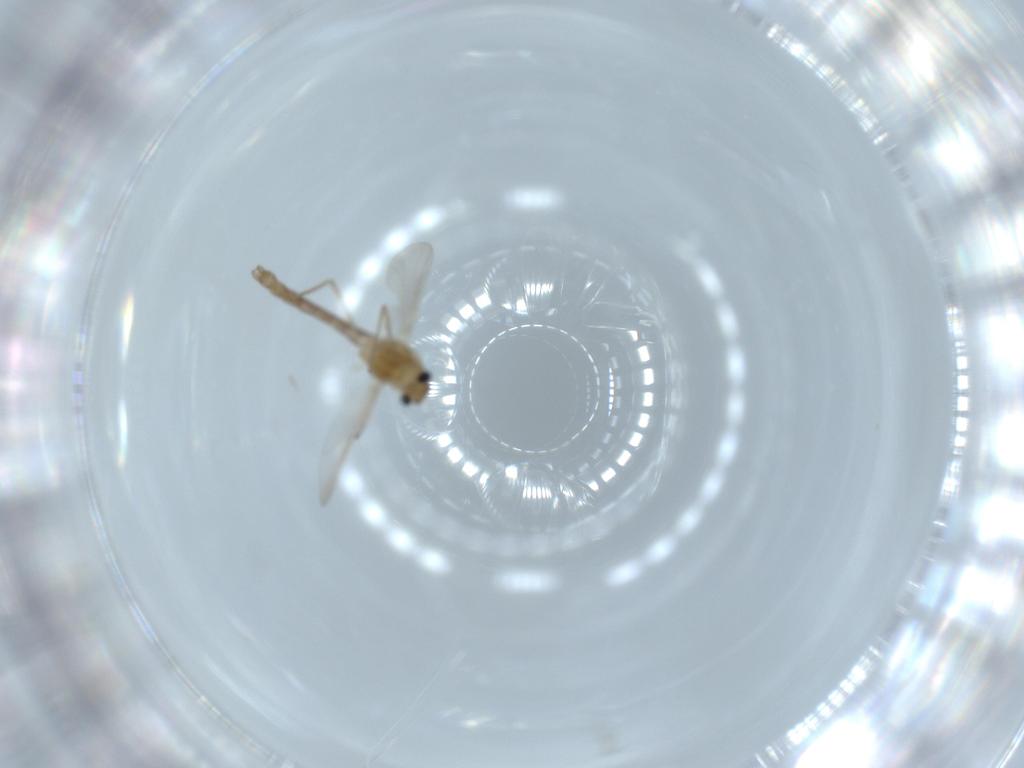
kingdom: Animalia
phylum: Arthropoda
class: Insecta
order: Diptera
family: Chironomidae
